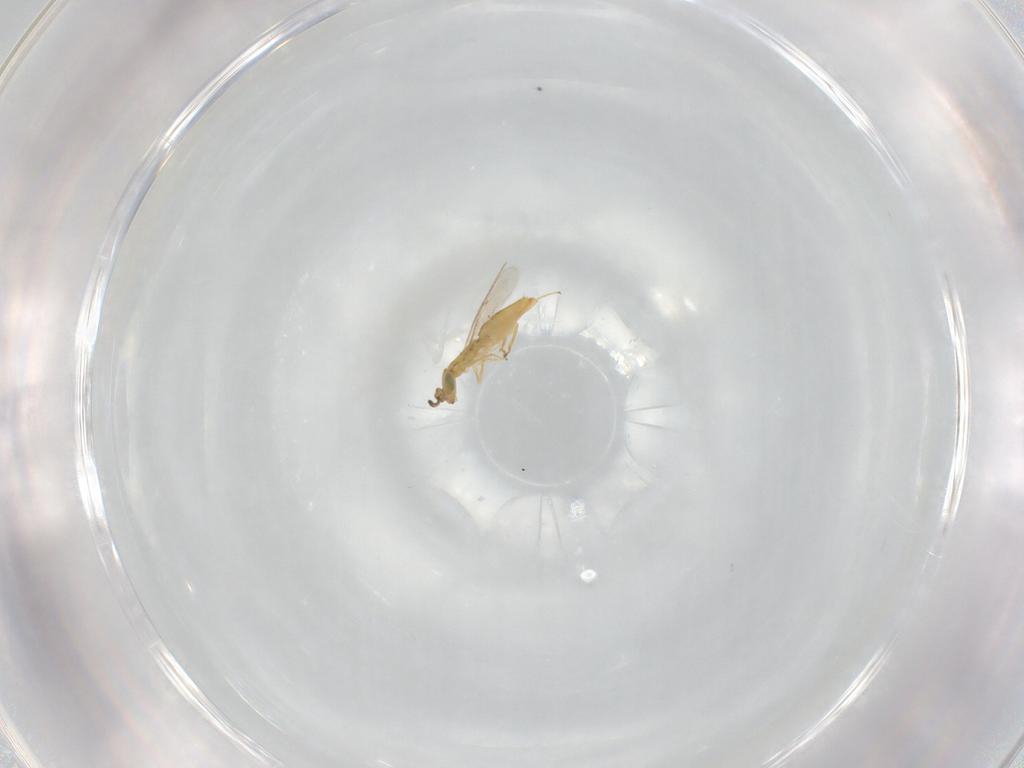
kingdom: Animalia
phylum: Arthropoda
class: Insecta
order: Hymenoptera
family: Encyrtidae
